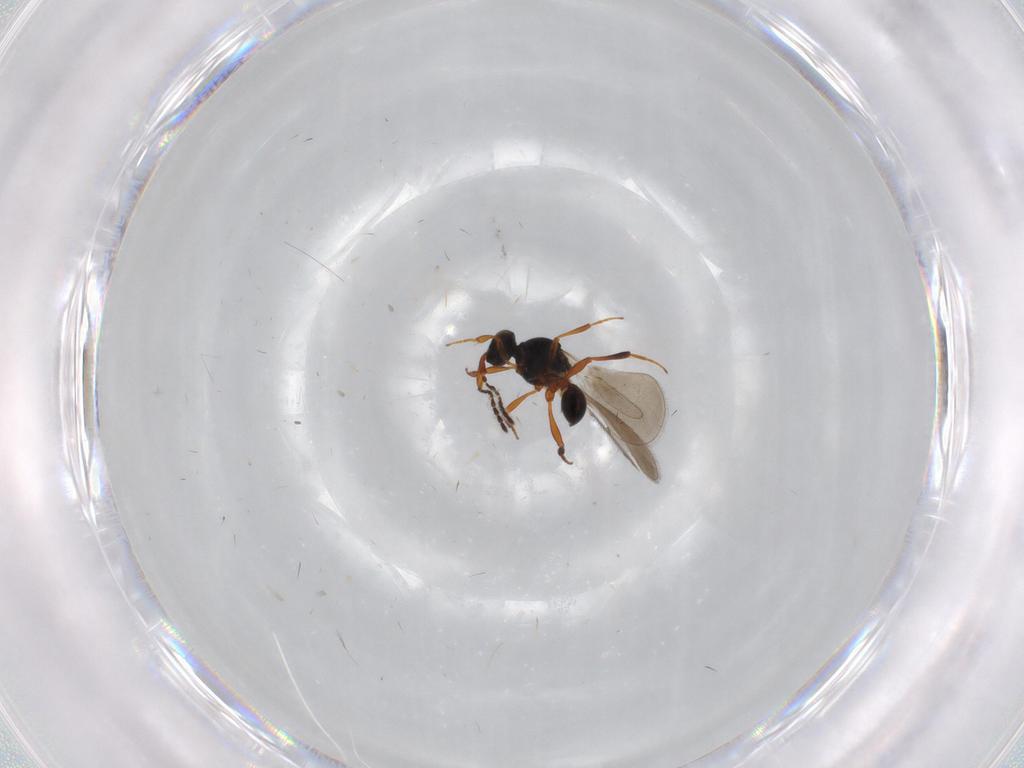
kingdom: Animalia
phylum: Arthropoda
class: Insecta
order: Hymenoptera
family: Platygastridae
